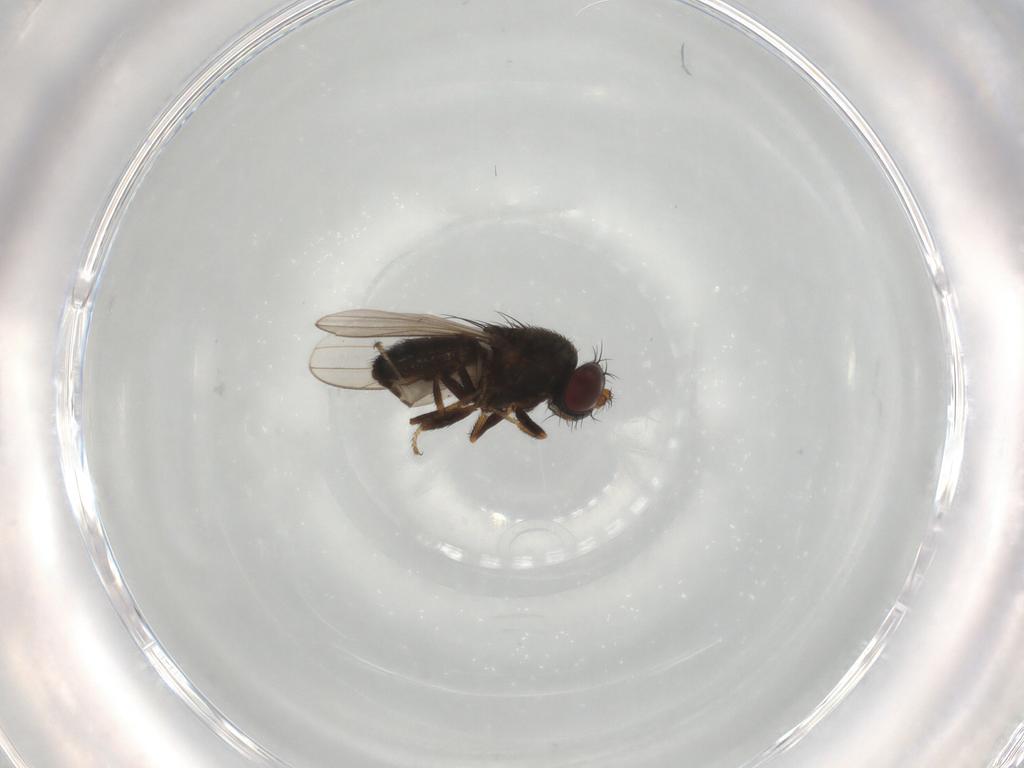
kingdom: Animalia
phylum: Arthropoda
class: Insecta
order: Diptera
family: Ephydridae
